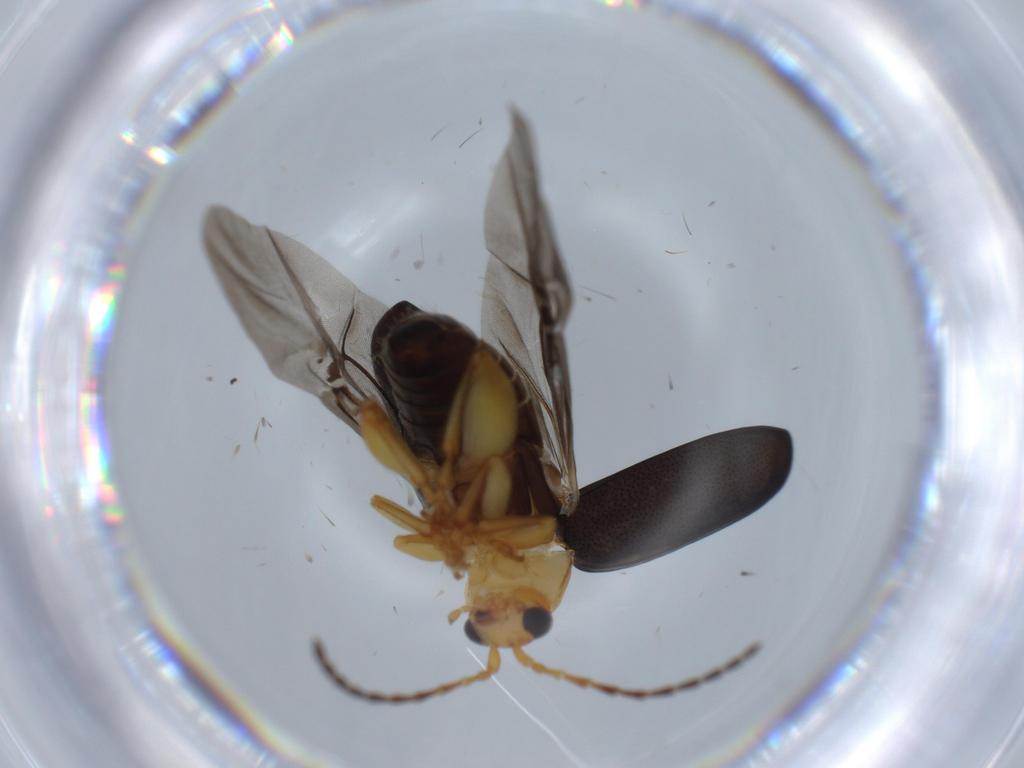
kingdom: Animalia
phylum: Arthropoda
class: Insecta
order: Coleoptera
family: Chrysomelidae
